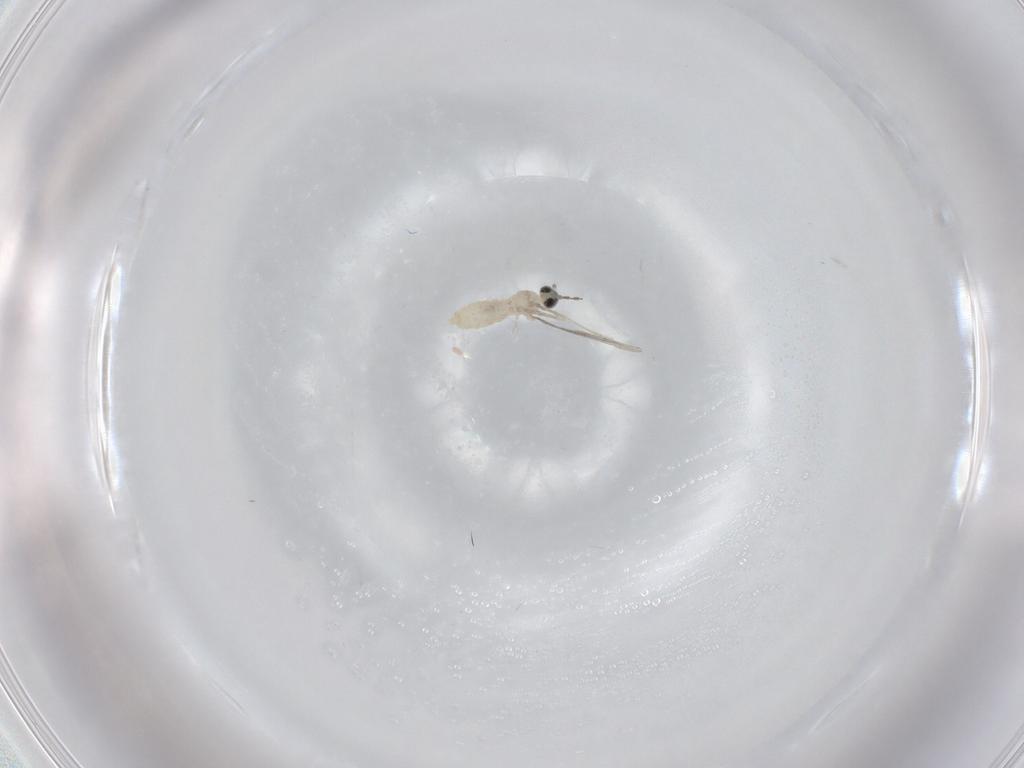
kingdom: Animalia
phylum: Arthropoda
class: Insecta
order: Diptera
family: Cecidomyiidae
